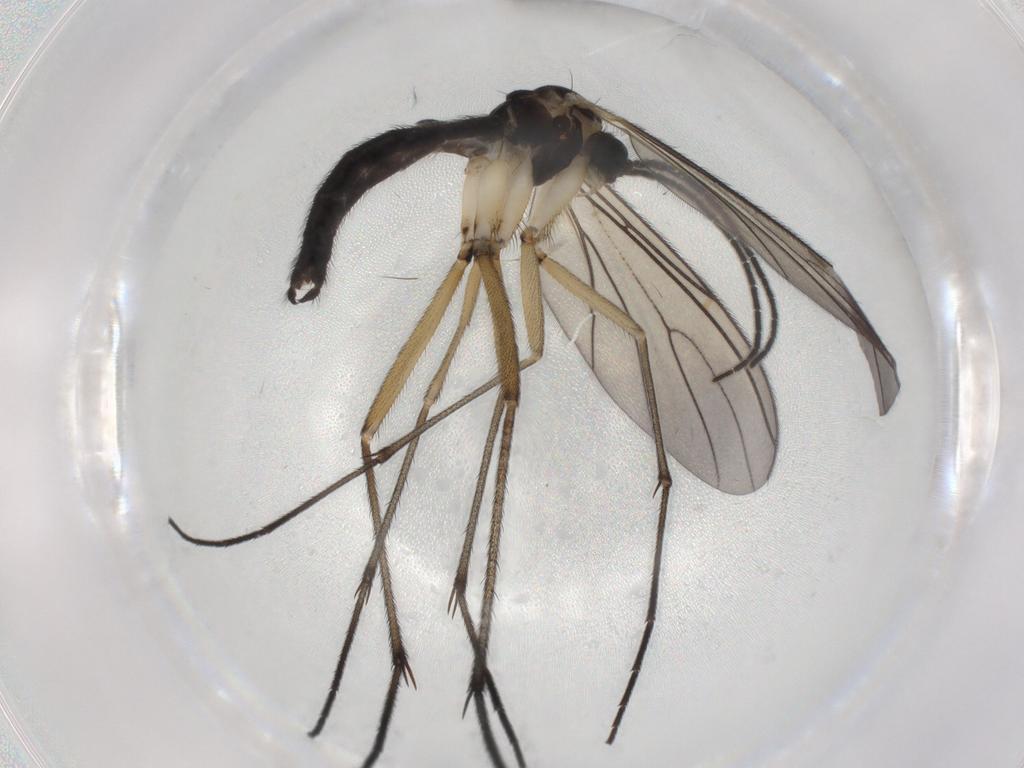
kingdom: Animalia
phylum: Arthropoda
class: Insecta
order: Diptera
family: Sciaridae
